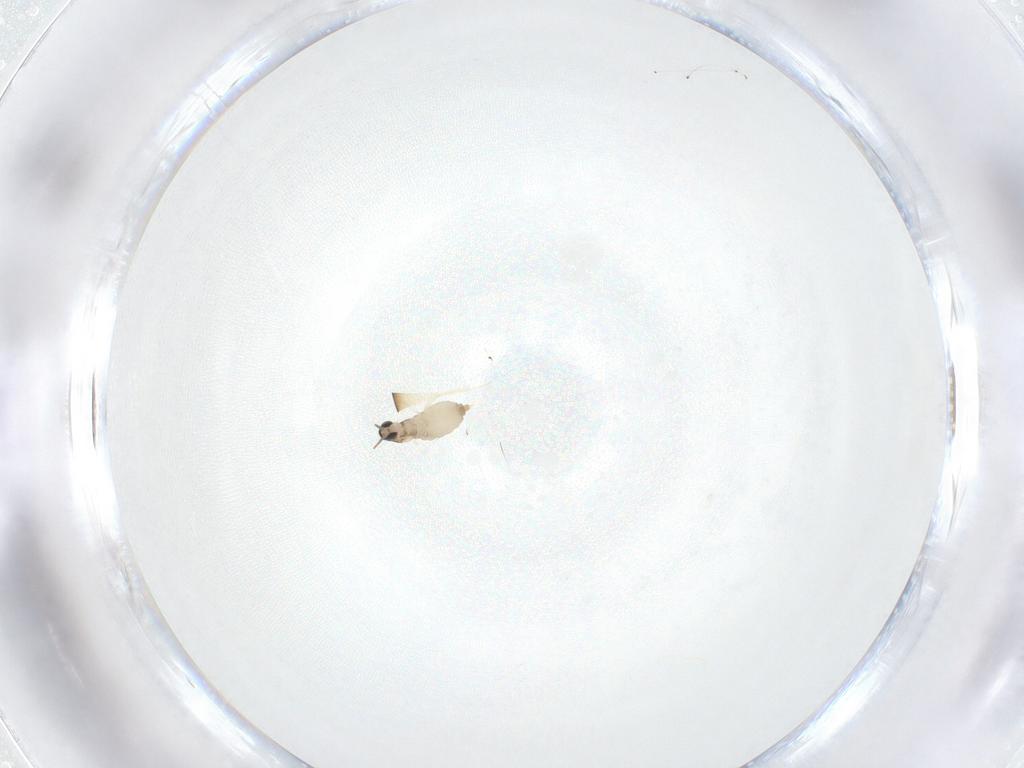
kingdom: Animalia
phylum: Arthropoda
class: Insecta
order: Diptera
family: Cecidomyiidae
